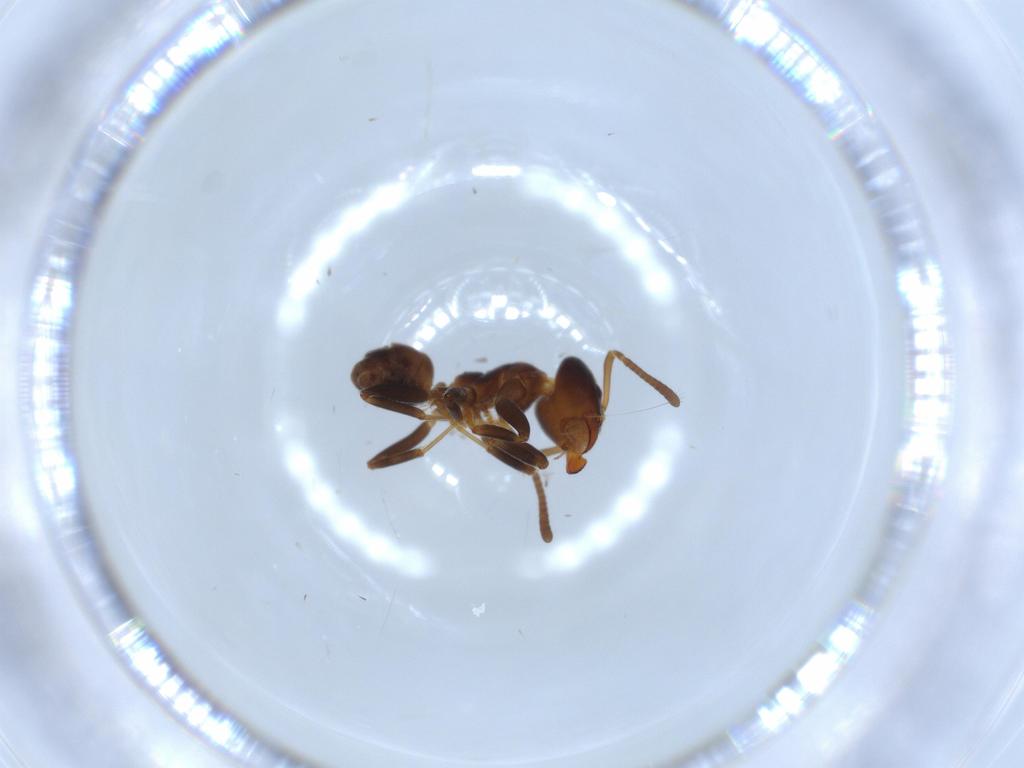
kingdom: Animalia
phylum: Arthropoda
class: Insecta
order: Hymenoptera
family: Formicidae
